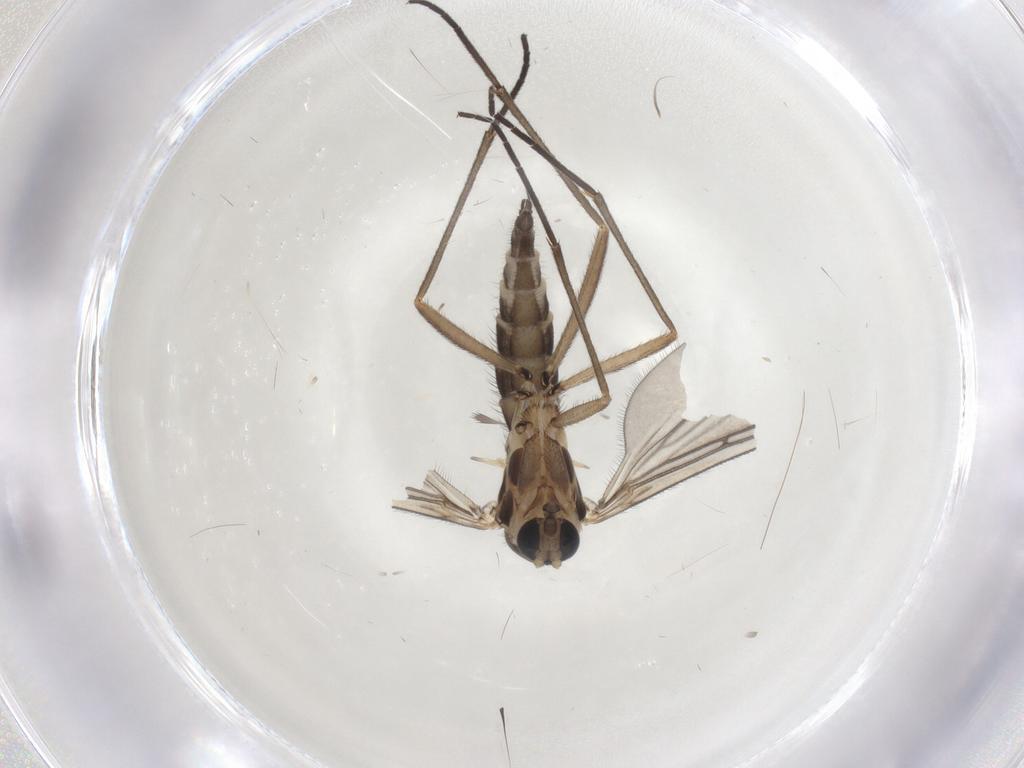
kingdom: Animalia
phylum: Arthropoda
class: Insecta
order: Diptera
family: Sciaridae
